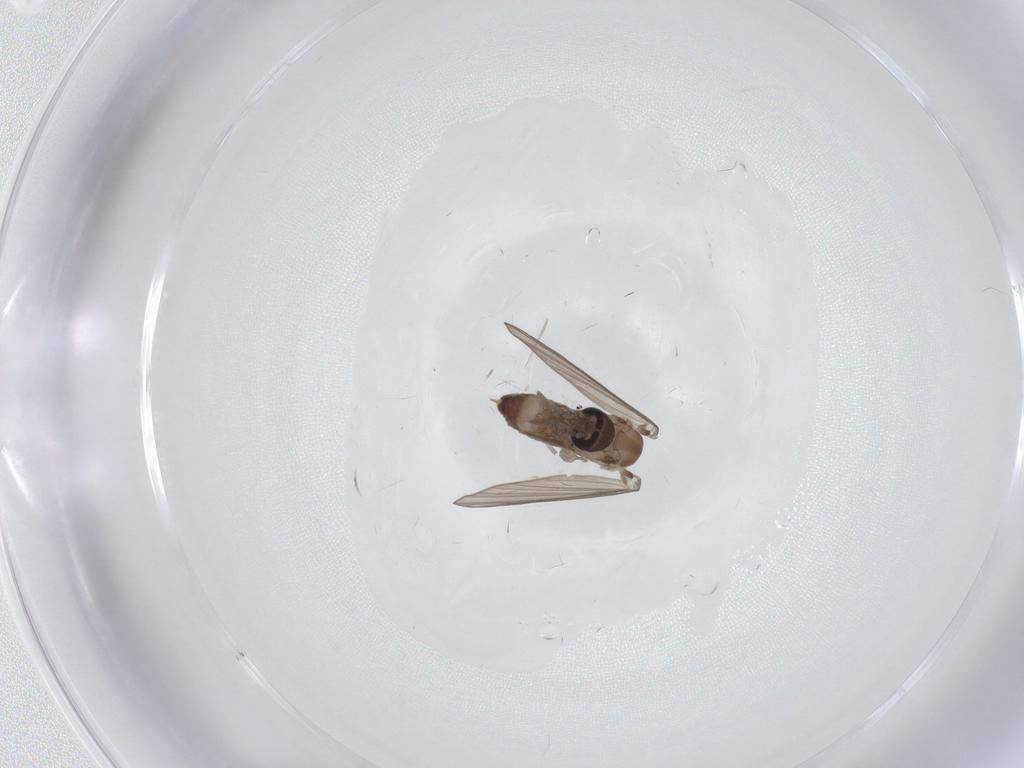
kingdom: Animalia
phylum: Arthropoda
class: Insecta
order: Diptera
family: Psychodidae
